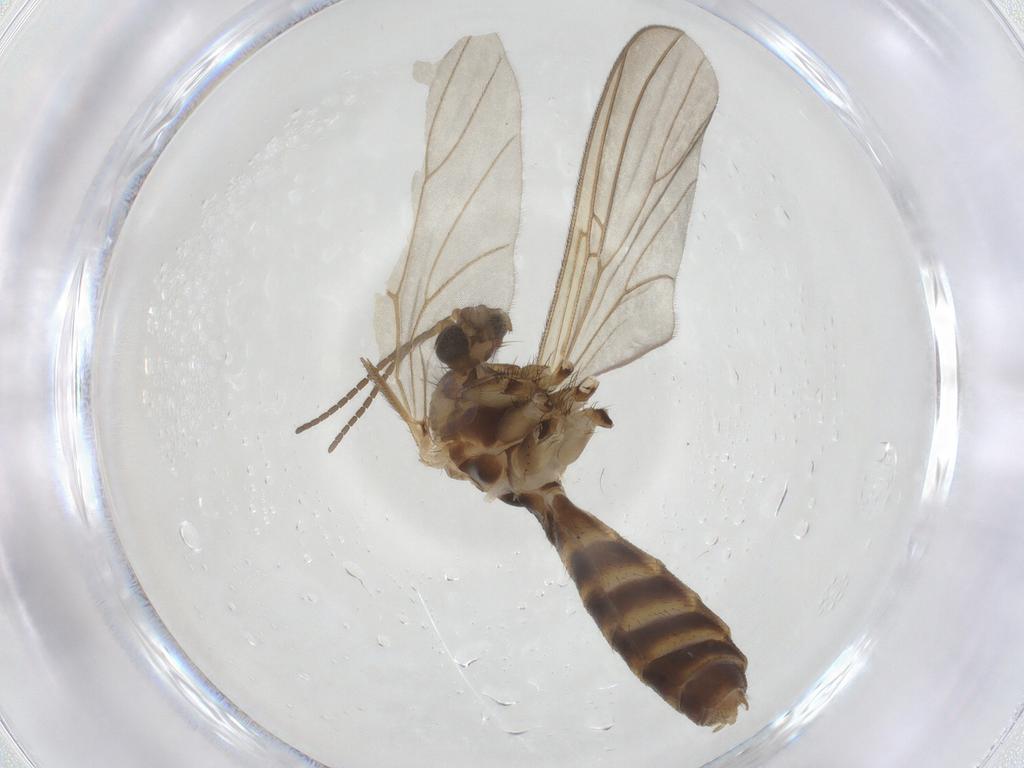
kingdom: Animalia
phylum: Arthropoda
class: Insecta
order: Diptera
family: Mycetophilidae
